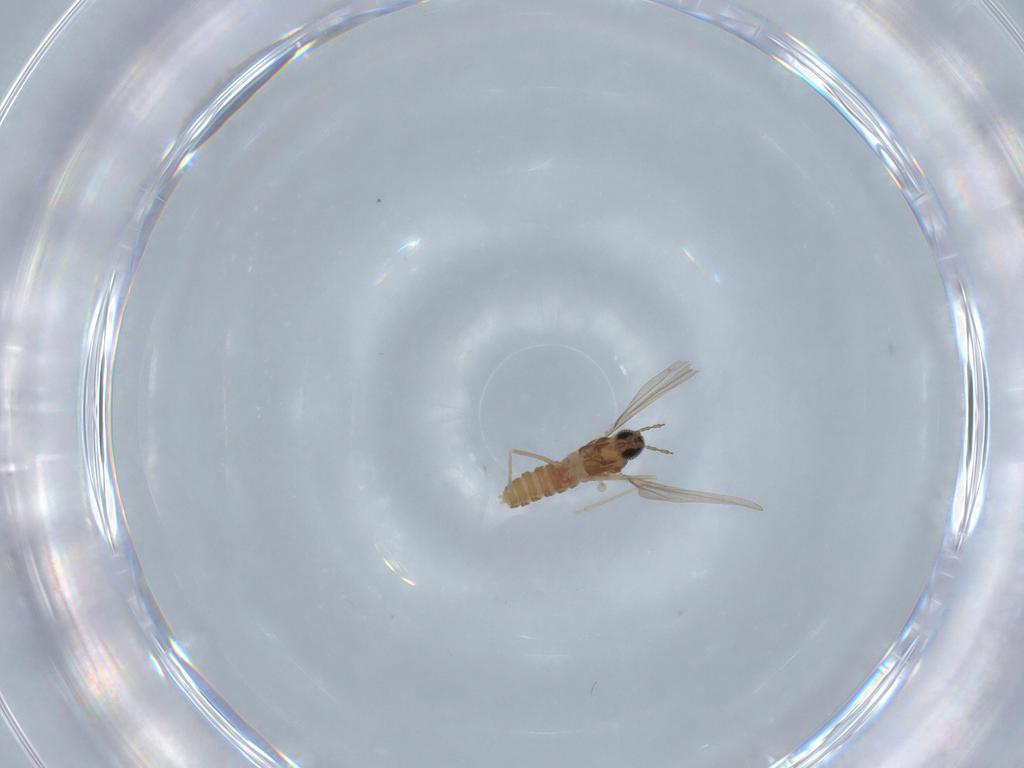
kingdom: Animalia
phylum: Arthropoda
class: Insecta
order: Diptera
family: Cecidomyiidae
